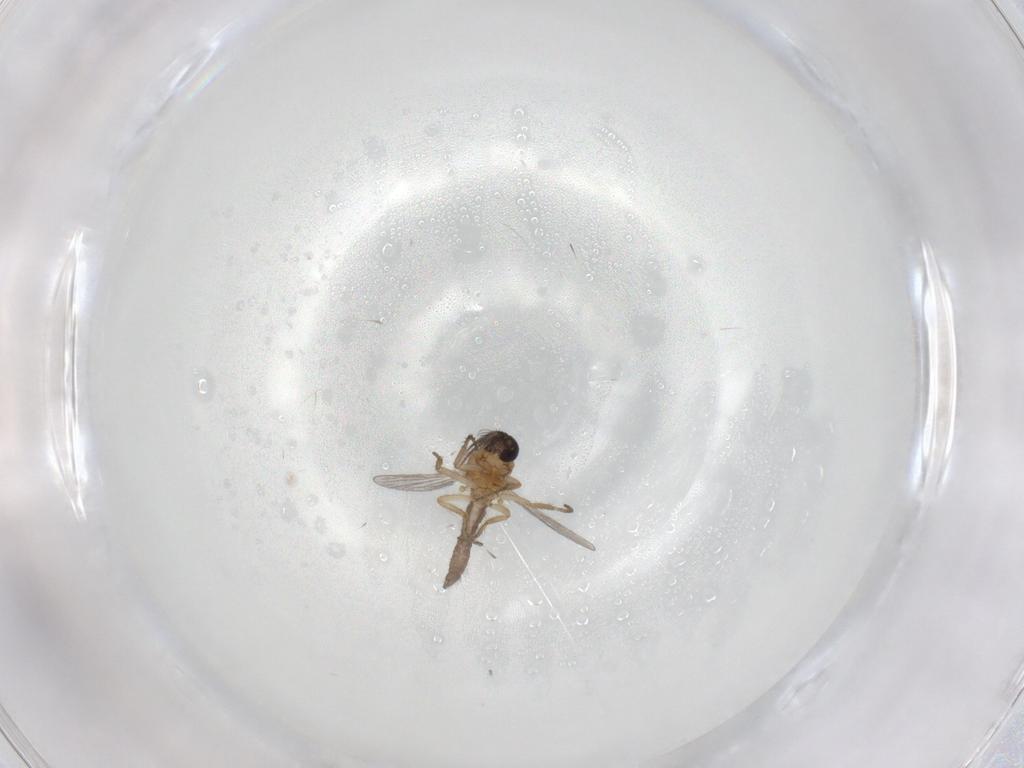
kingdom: Animalia
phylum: Arthropoda
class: Insecta
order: Diptera
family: Ceratopogonidae
